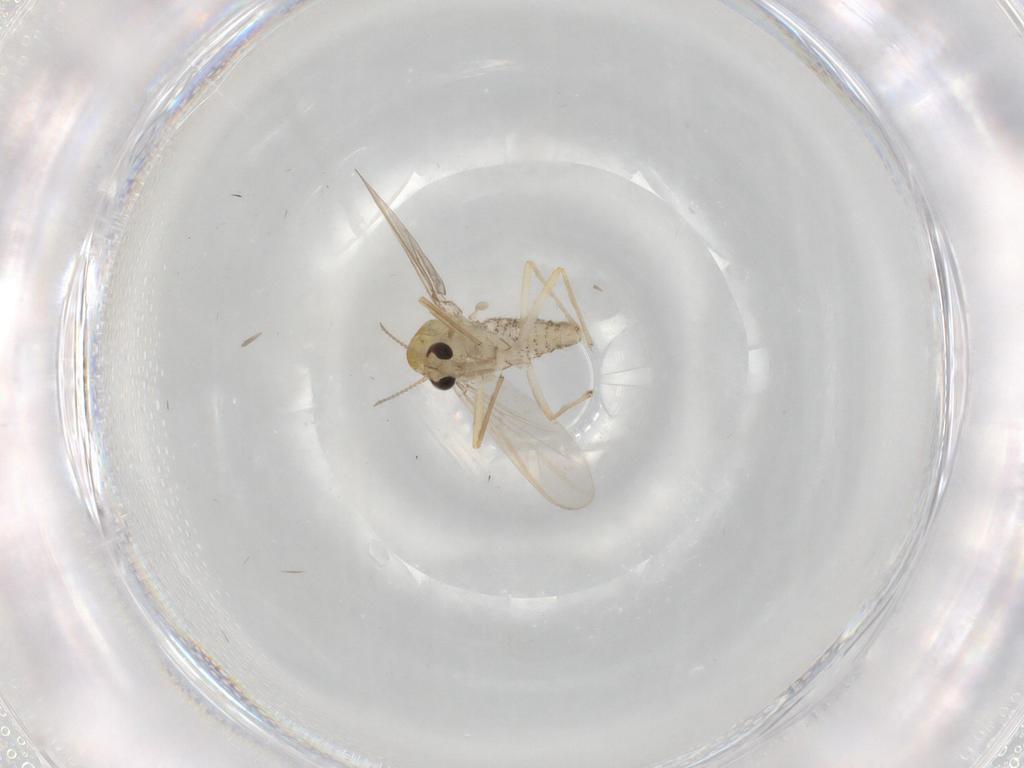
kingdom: Animalia
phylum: Arthropoda
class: Insecta
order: Diptera
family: Chironomidae
